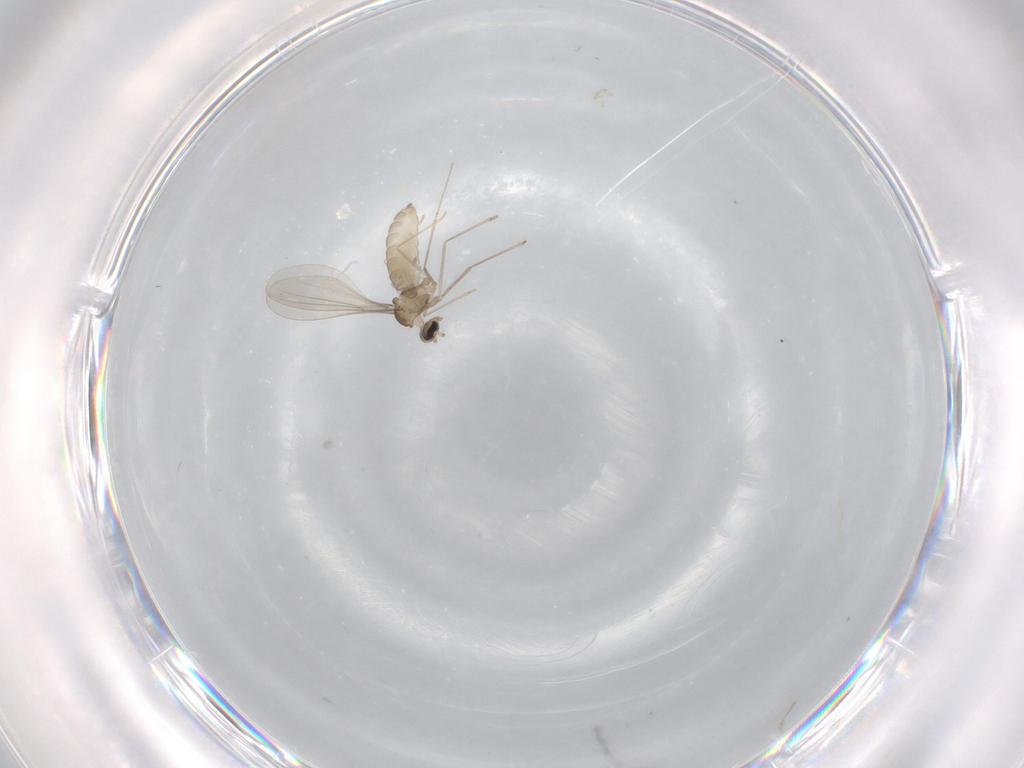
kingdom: Animalia
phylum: Arthropoda
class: Insecta
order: Diptera
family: Cecidomyiidae
